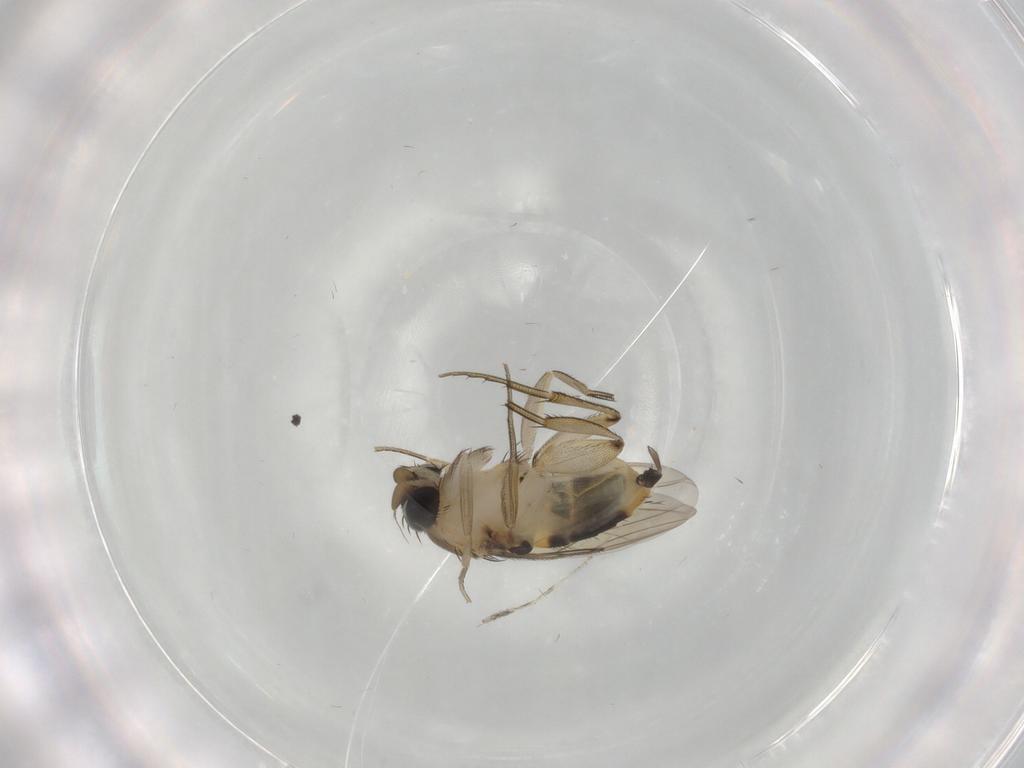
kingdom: Animalia
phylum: Arthropoda
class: Insecta
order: Diptera
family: Cecidomyiidae
